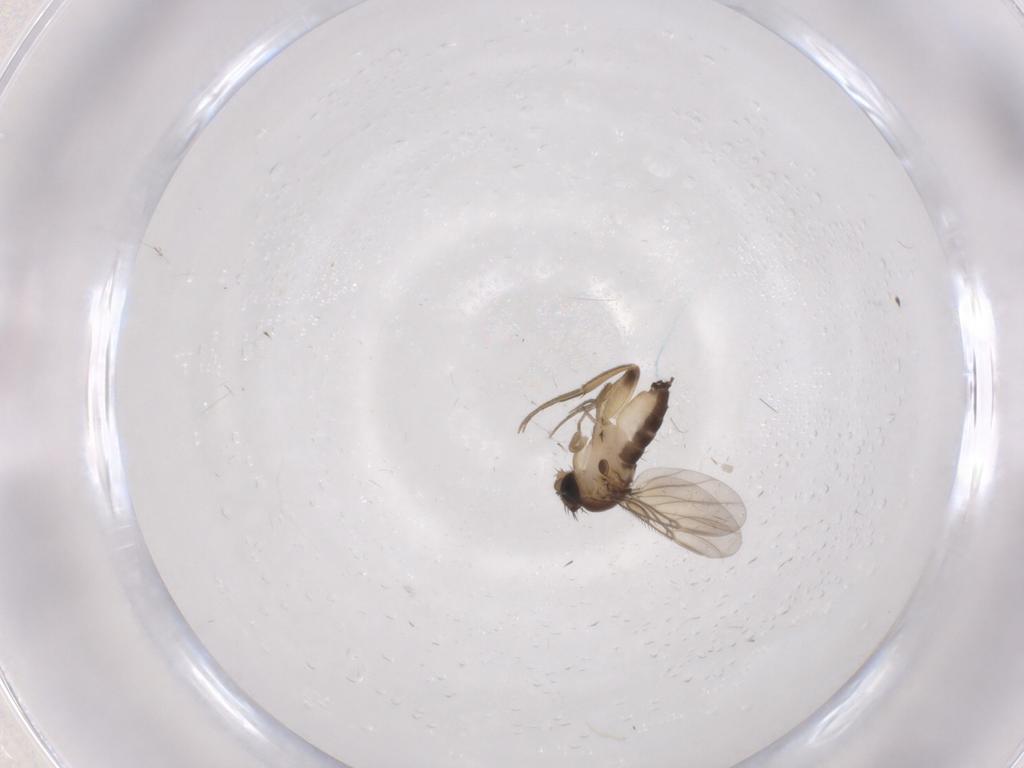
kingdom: Animalia
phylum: Arthropoda
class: Insecta
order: Diptera
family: Phoridae
